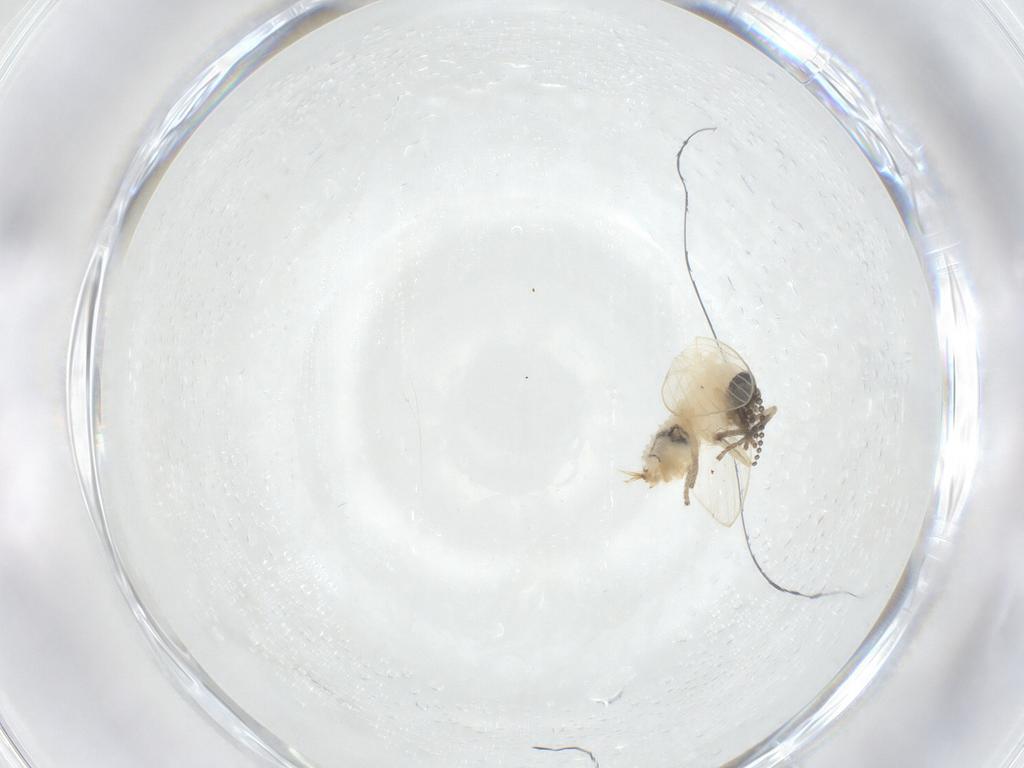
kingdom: Animalia
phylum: Arthropoda
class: Insecta
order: Diptera
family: Psychodidae
